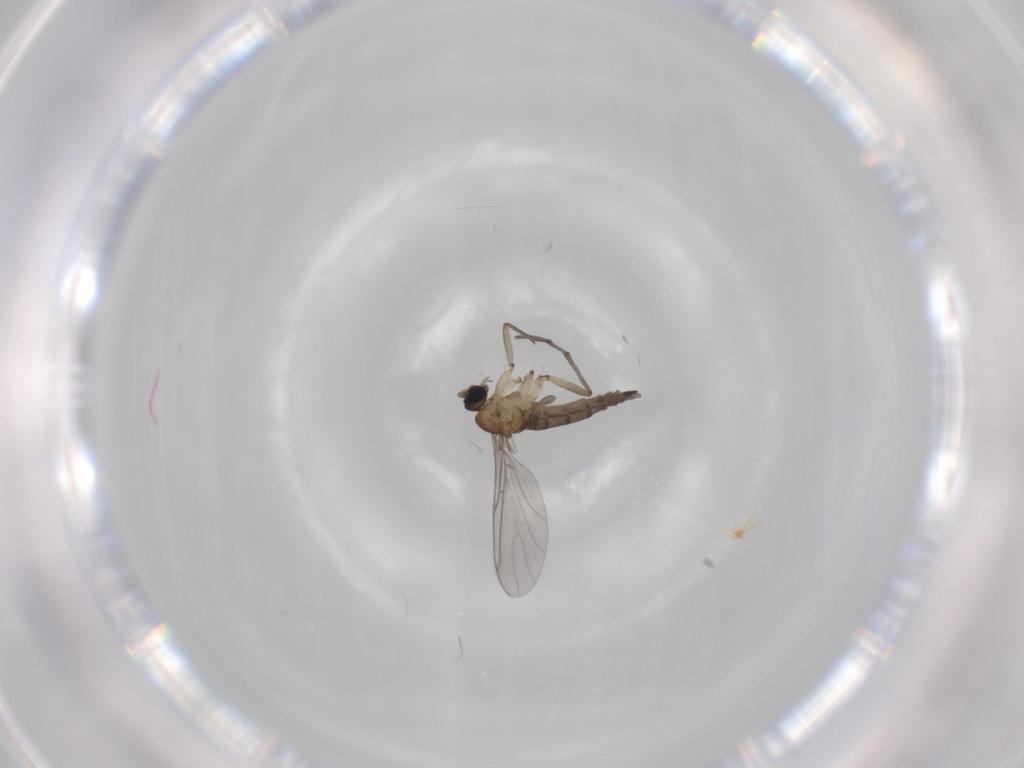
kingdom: Animalia
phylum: Arthropoda
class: Insecta
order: Diptera
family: Sciaridae
